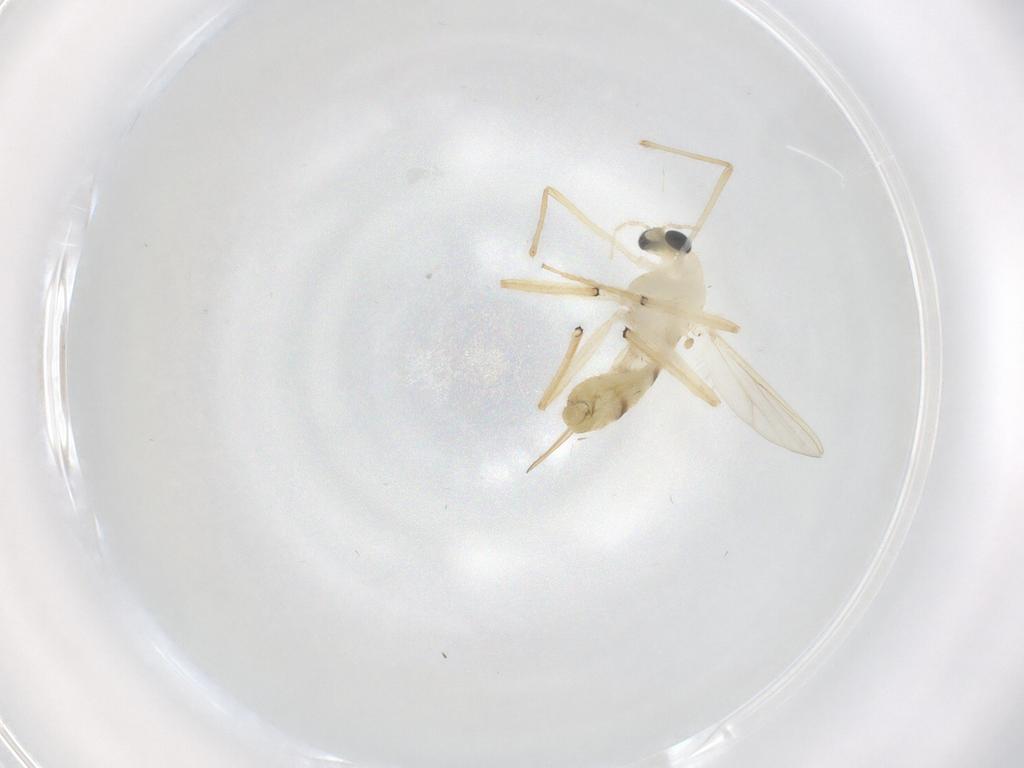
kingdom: Animalia
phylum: Arthropoda
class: Insecta
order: Diptera
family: Chironomidae
